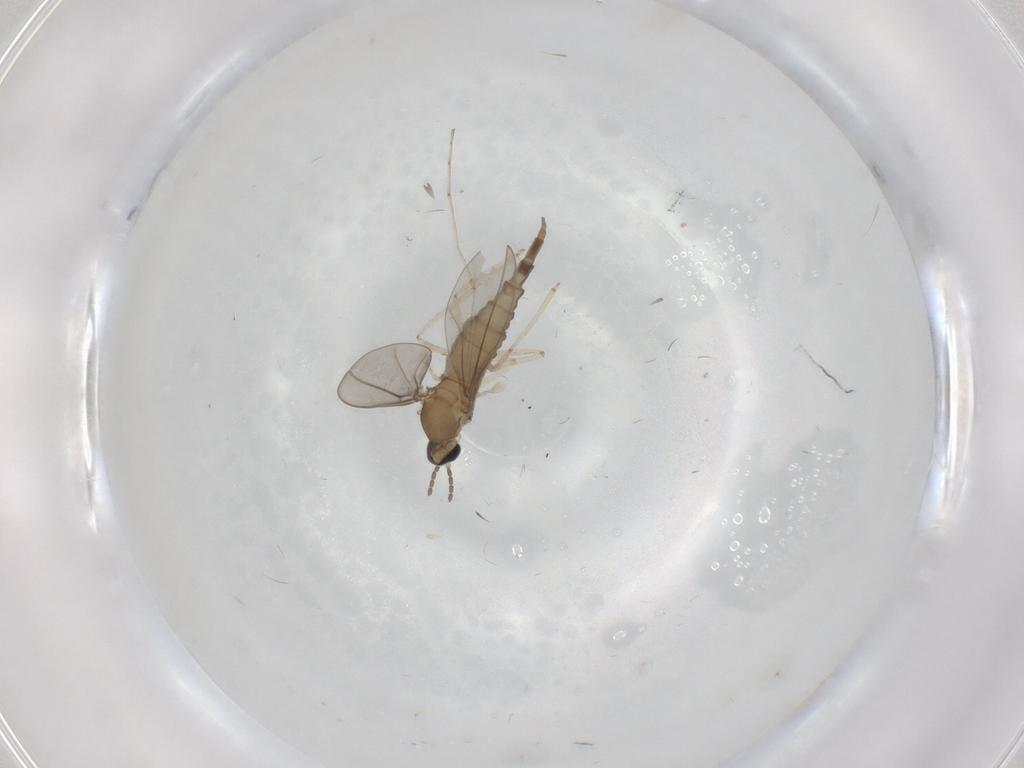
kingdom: Animalia
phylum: Arthropoda
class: Insecta
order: Diptera
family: Cecidomyiidae
